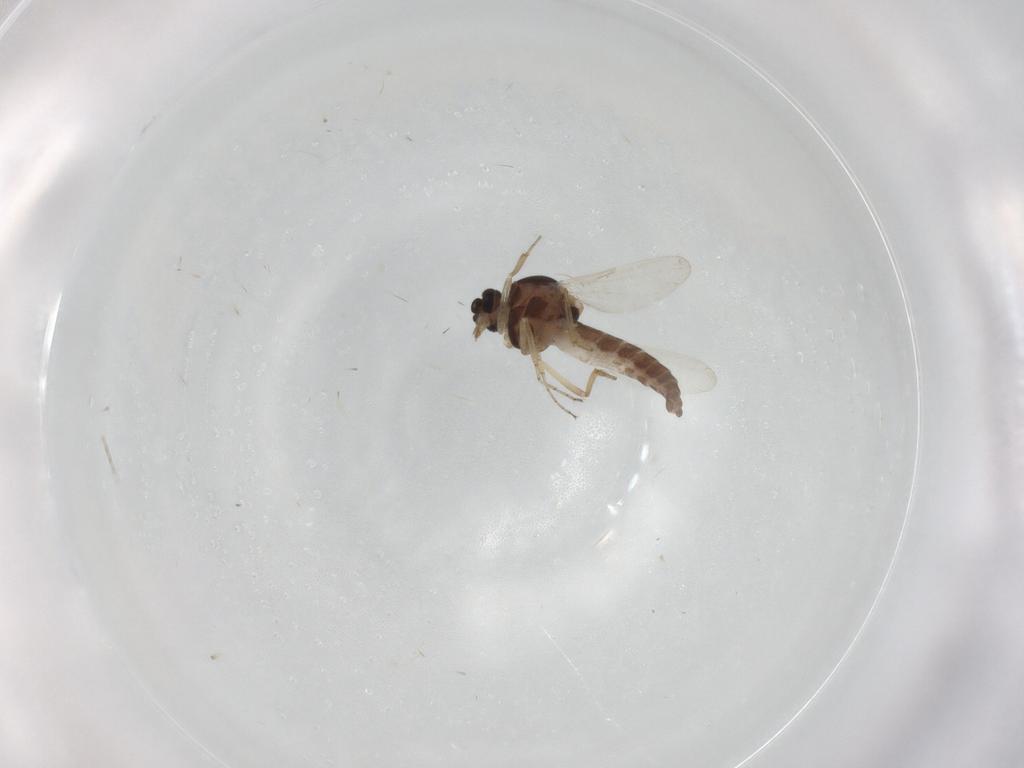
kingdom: Animalia
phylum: Arthropoda
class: Insecta
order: Diptera
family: Ceratopogonidae
